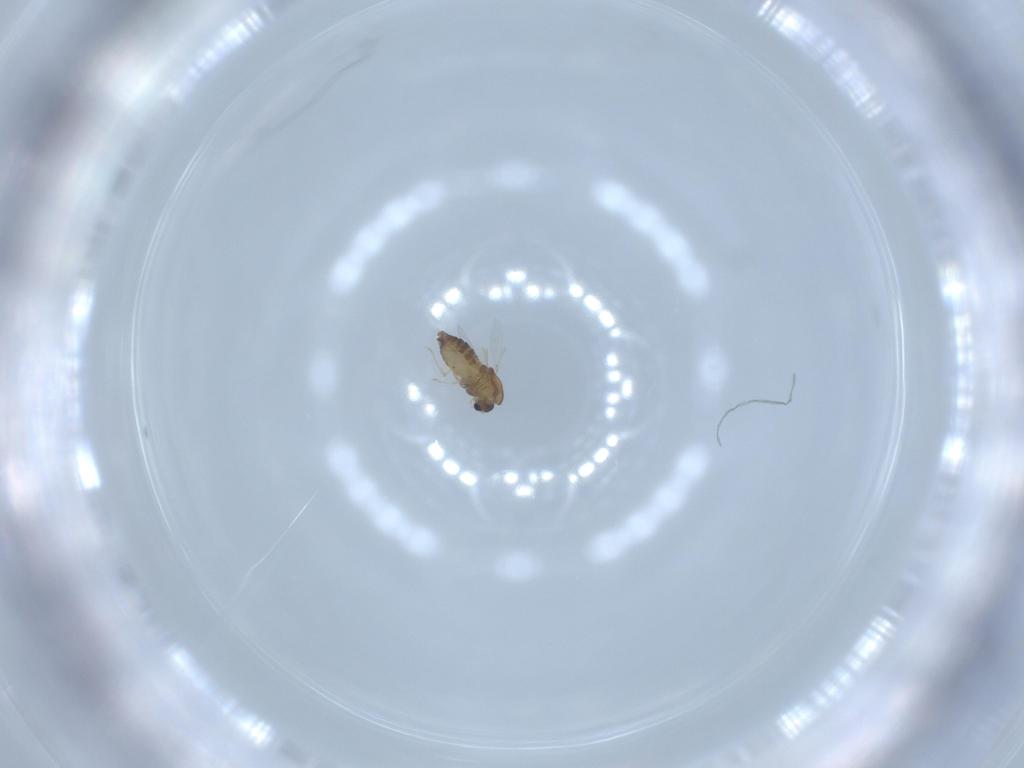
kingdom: Animalia
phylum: Arthropoda
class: Insecta
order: Diptera
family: Chironomidae
